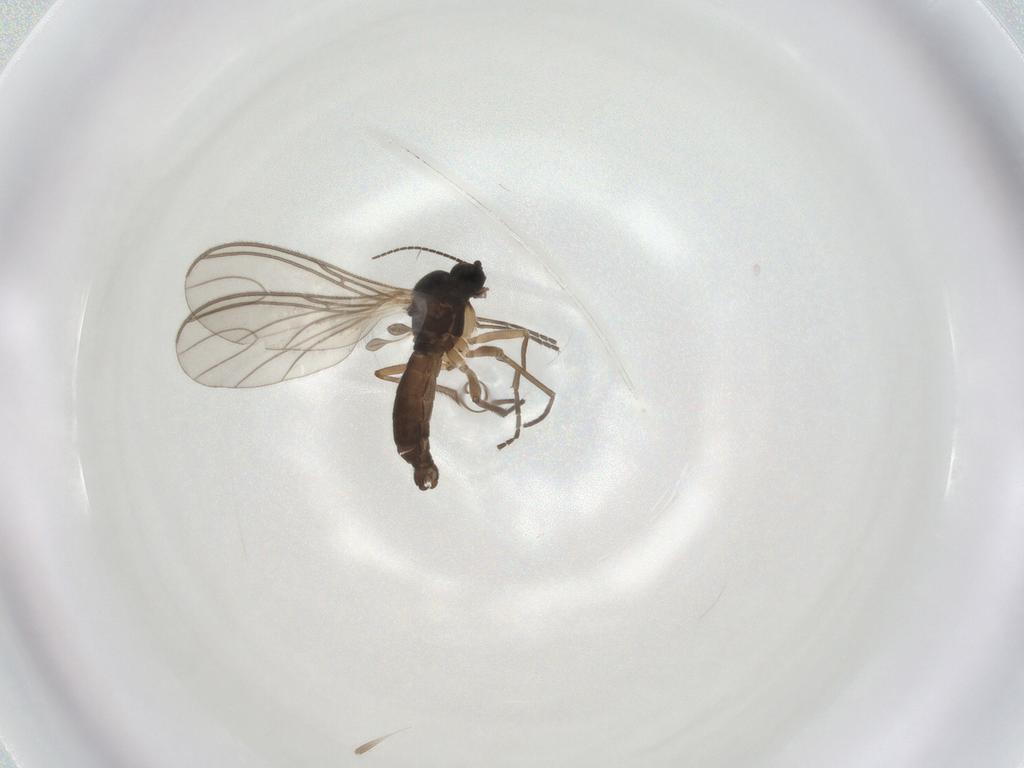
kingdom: Animalia
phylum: Arthropoda
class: Insecta
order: Diptera
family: Sciaridae
